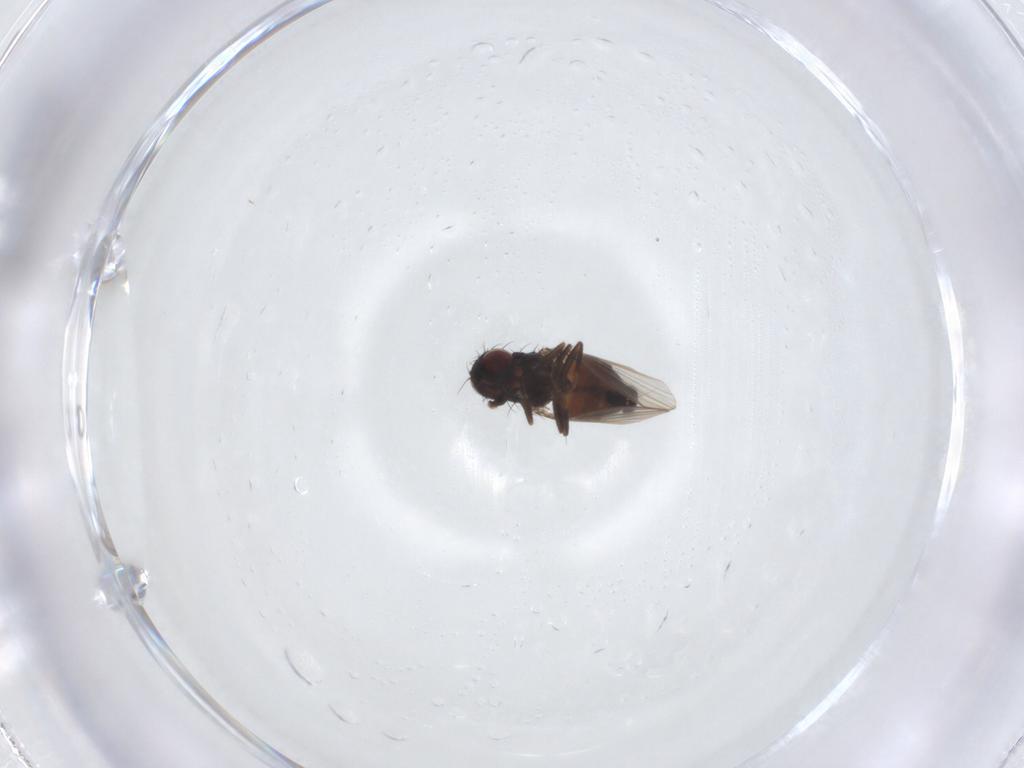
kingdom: Animalia
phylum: Arthropoda
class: Insecta
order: Diptera
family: Carnidae
